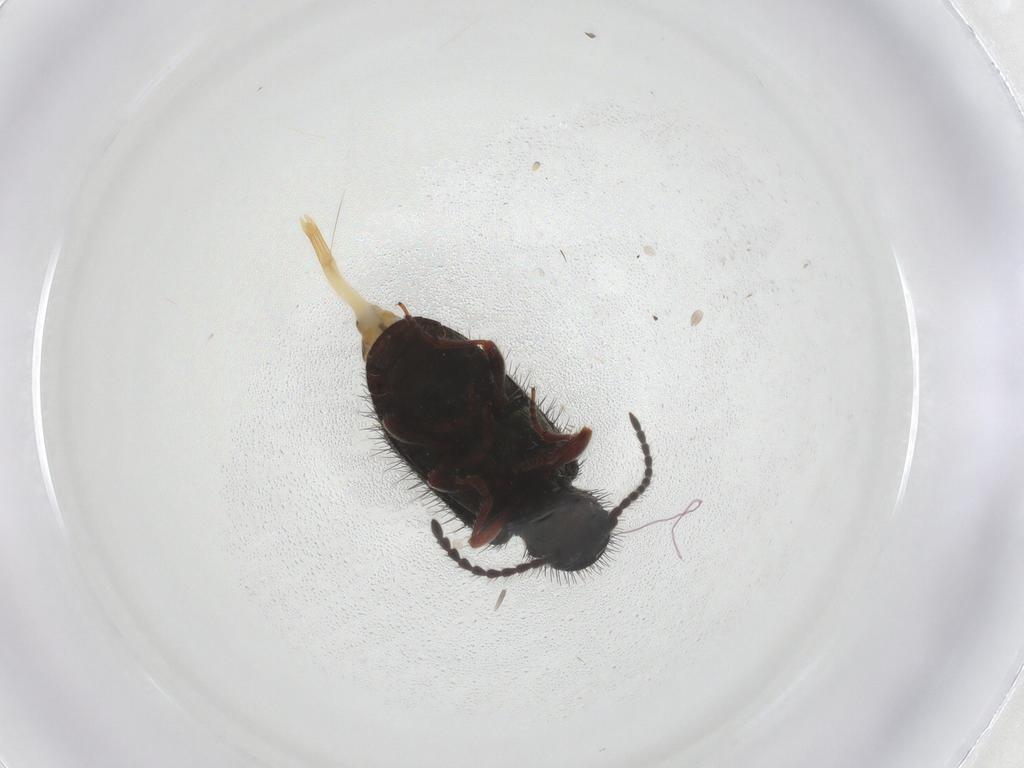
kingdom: Animalia
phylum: Arthropoda
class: Insecta
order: Coleoptera
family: Ptinidae
